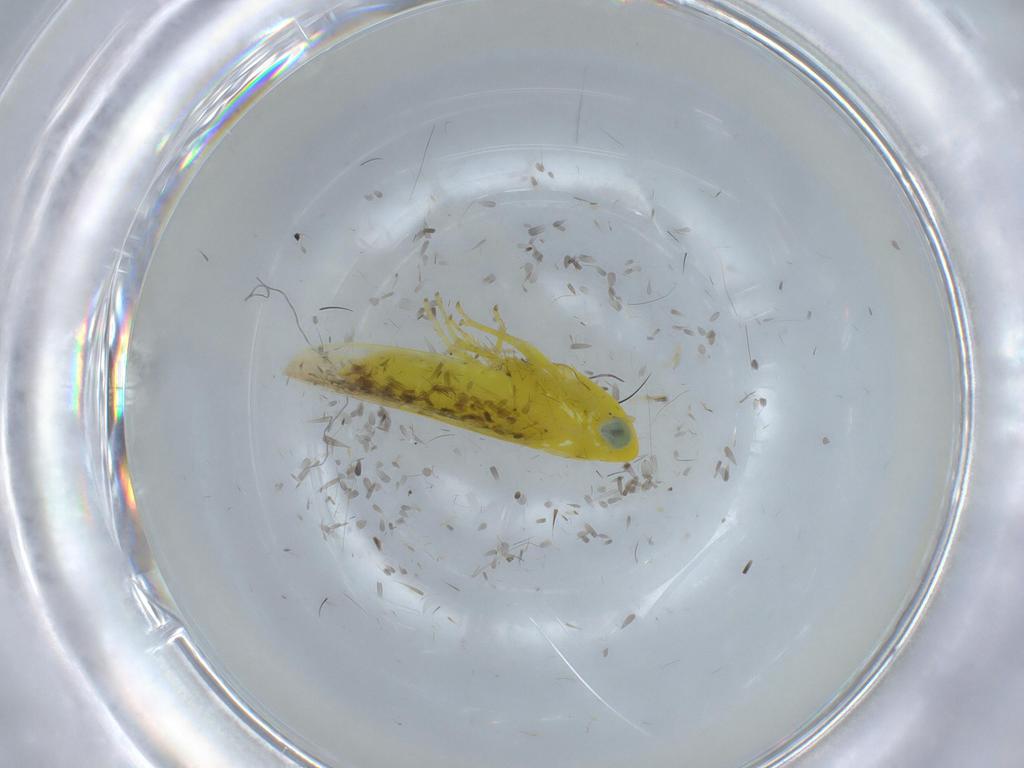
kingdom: Animalia
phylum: Arthropoda
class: Insecta
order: Hemiptera
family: Cicadellidae
